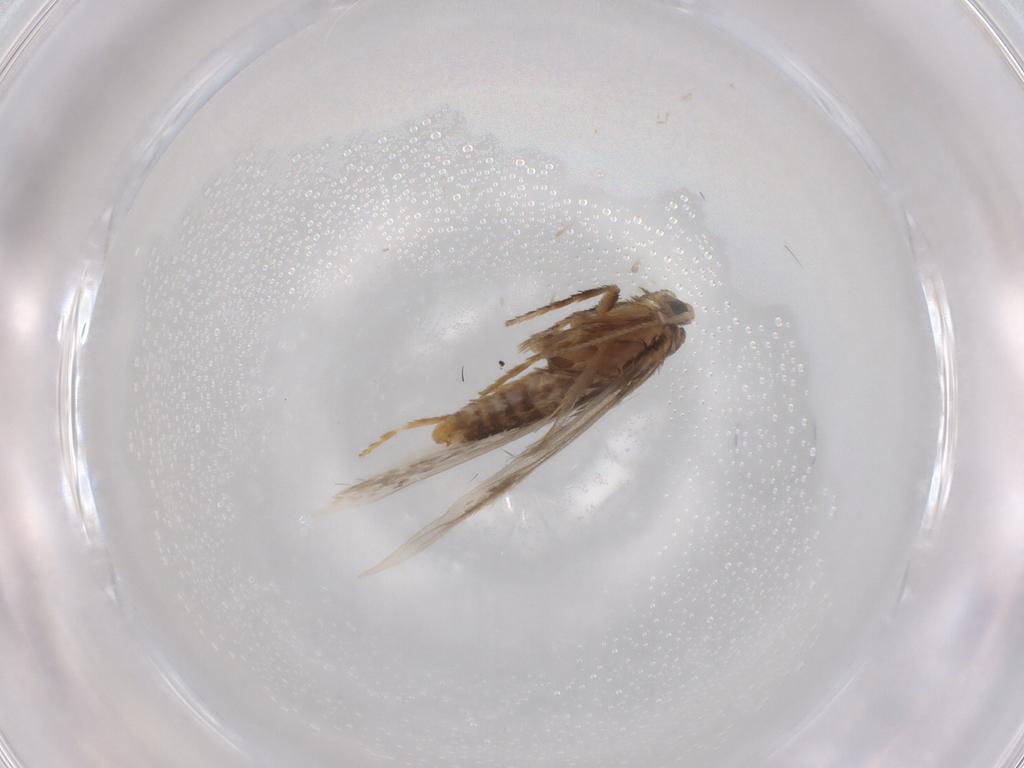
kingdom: Animalia
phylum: Arthropoda
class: Insecta
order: Lepidoptera
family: Nepticulidae
